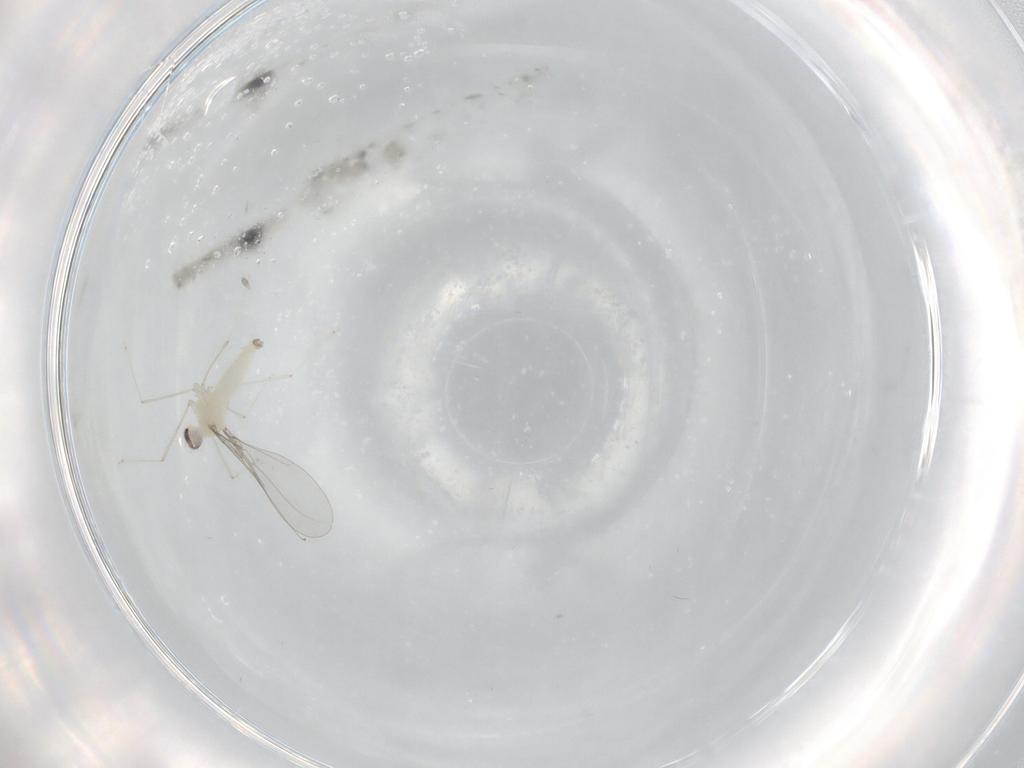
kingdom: Animalia
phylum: Arthropoda
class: Insecta
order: Diptera
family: Cecidomyiidae
